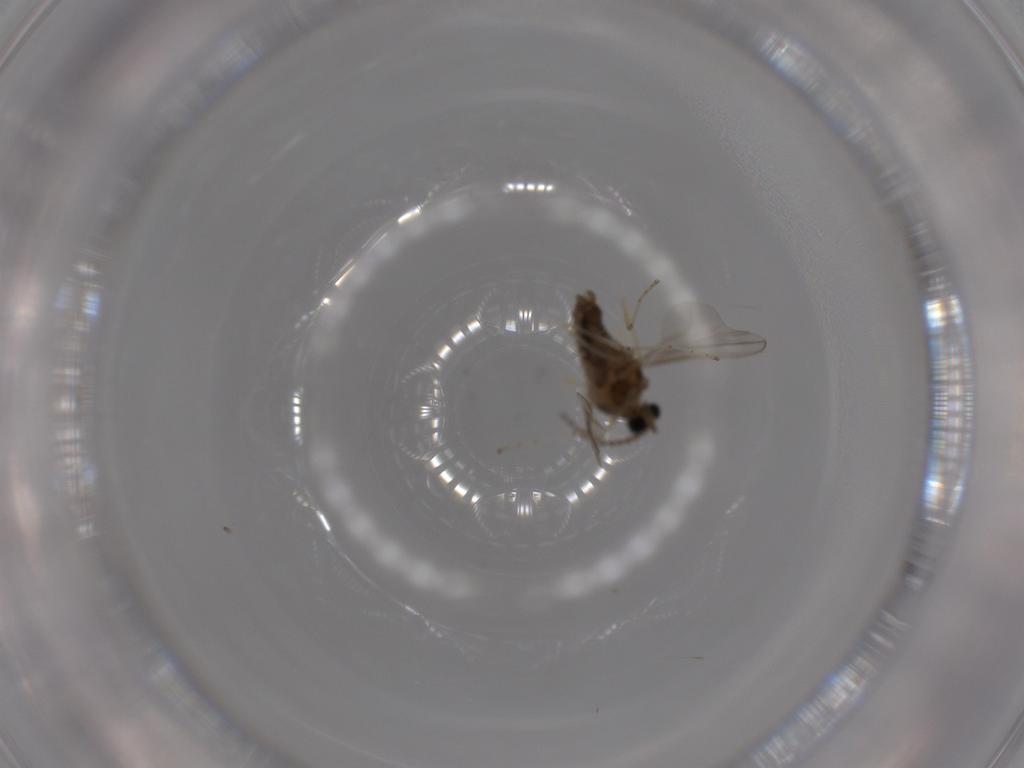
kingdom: Animalia
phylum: Arthropoda
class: Insecta
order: Diptera
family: Cecidomyiidae
